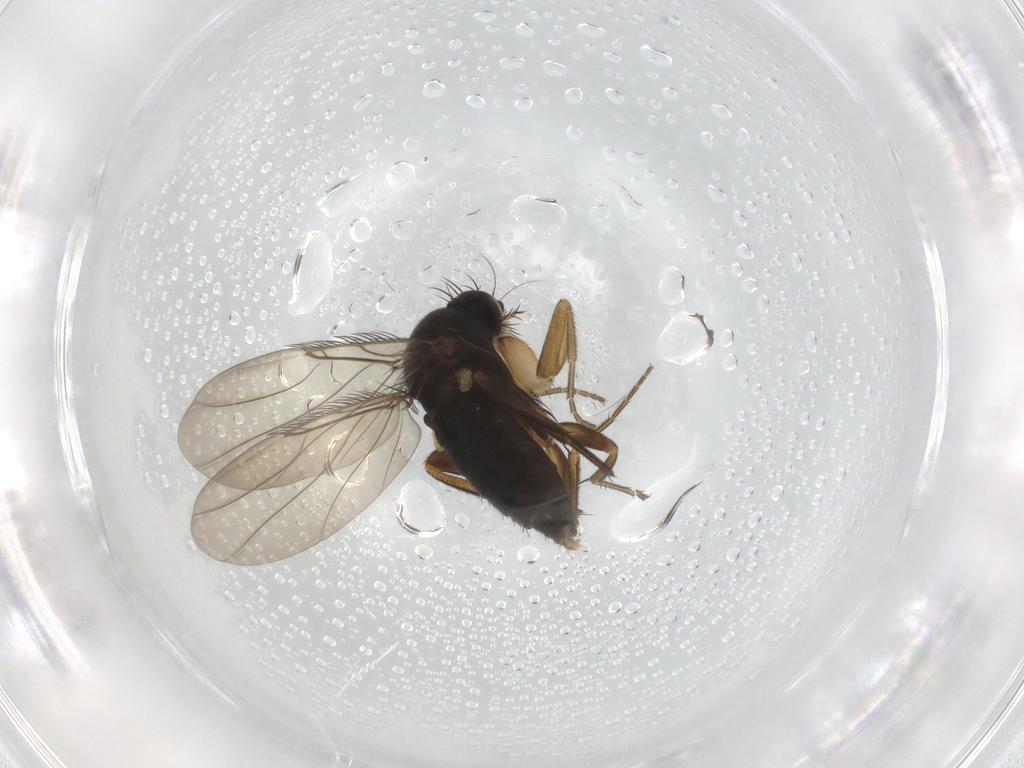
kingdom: Animalia
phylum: Arthropoda
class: Insecta
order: Diptera
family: Phoridae
